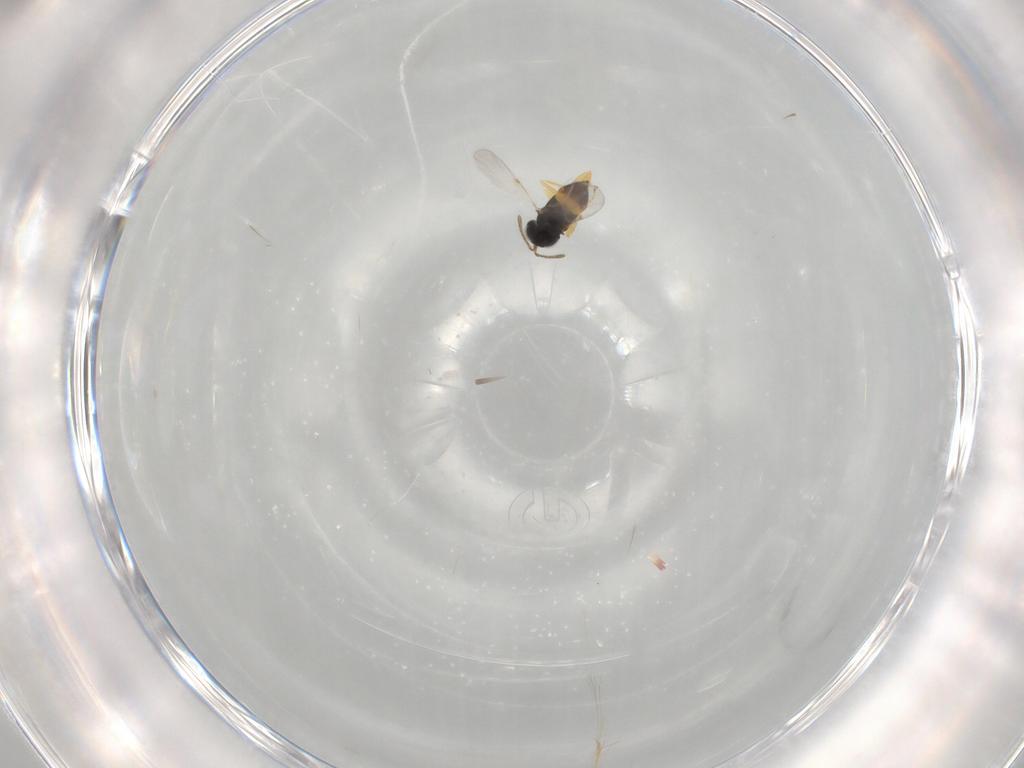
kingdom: Animalia
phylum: Arthropoda
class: Insecta
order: Hymenoptera
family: Encyrtidae
